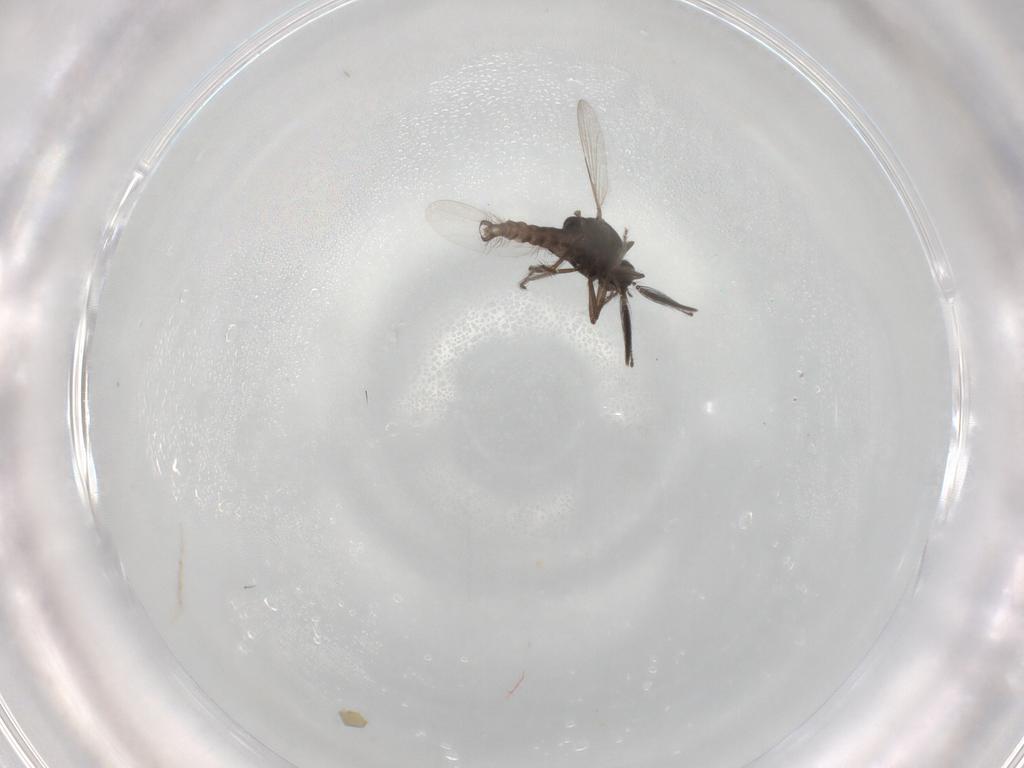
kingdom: Animalia
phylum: Arthropoda
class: Insecta
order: Diptera
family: Ceratopogonidae
